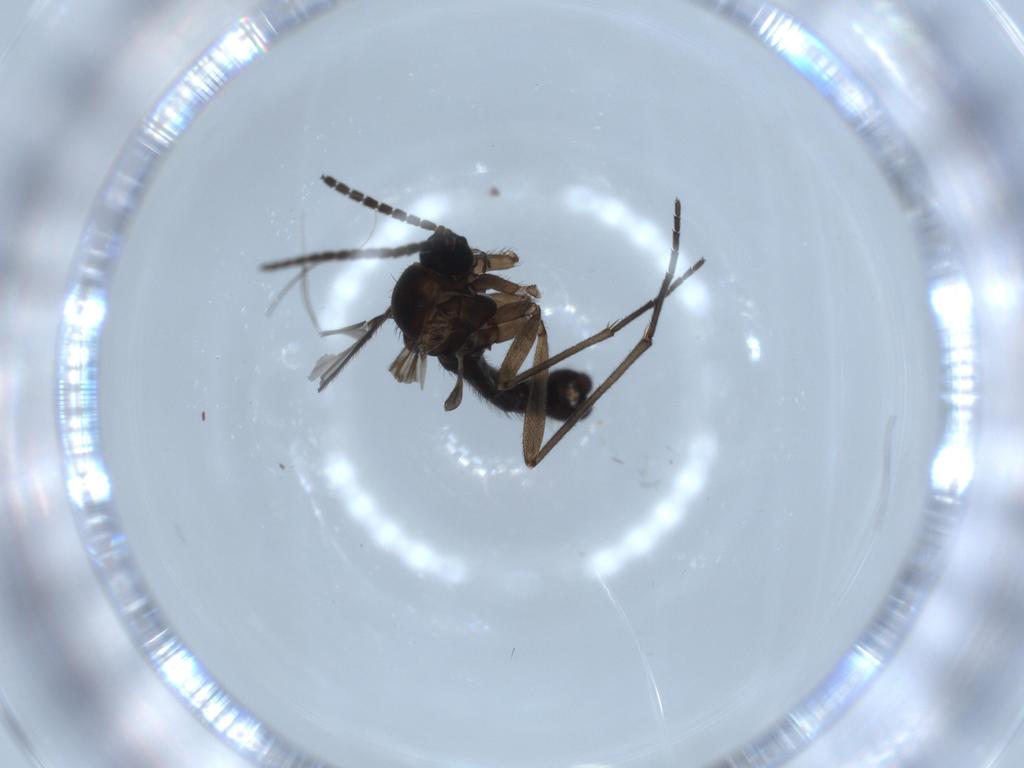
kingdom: Animalia
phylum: Arthropoda
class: Insecta
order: Diptera
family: Sciaridae
